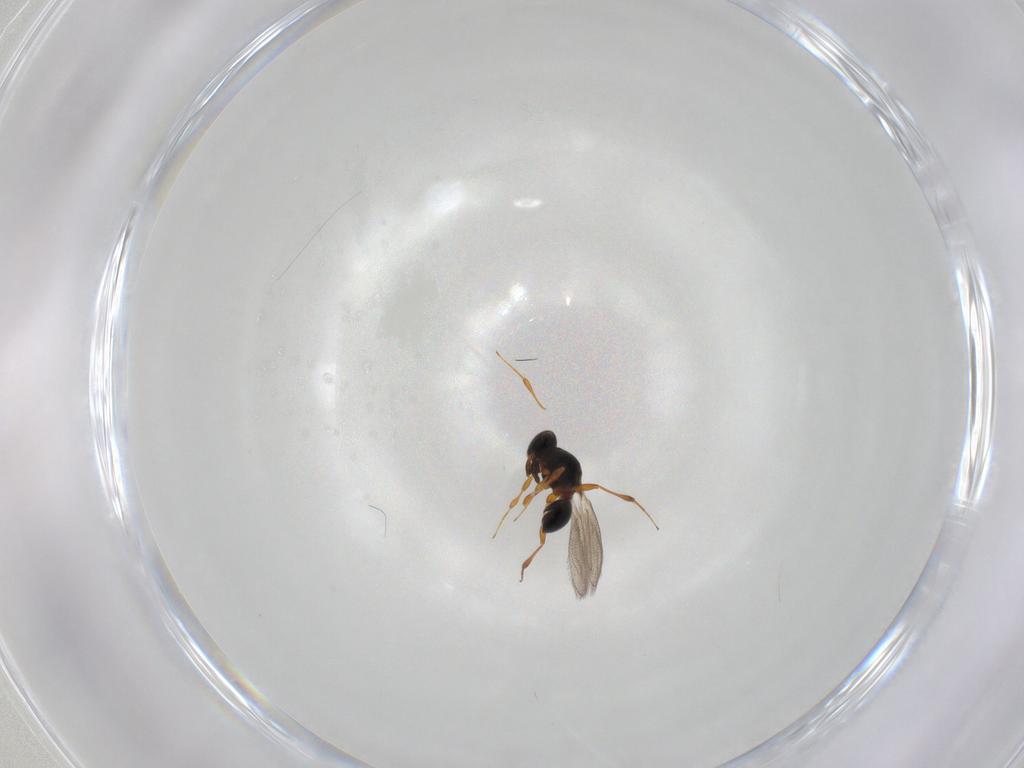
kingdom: Animalia
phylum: Arthropoda
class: Insecta
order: Hymenoptera
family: Platygastridae
